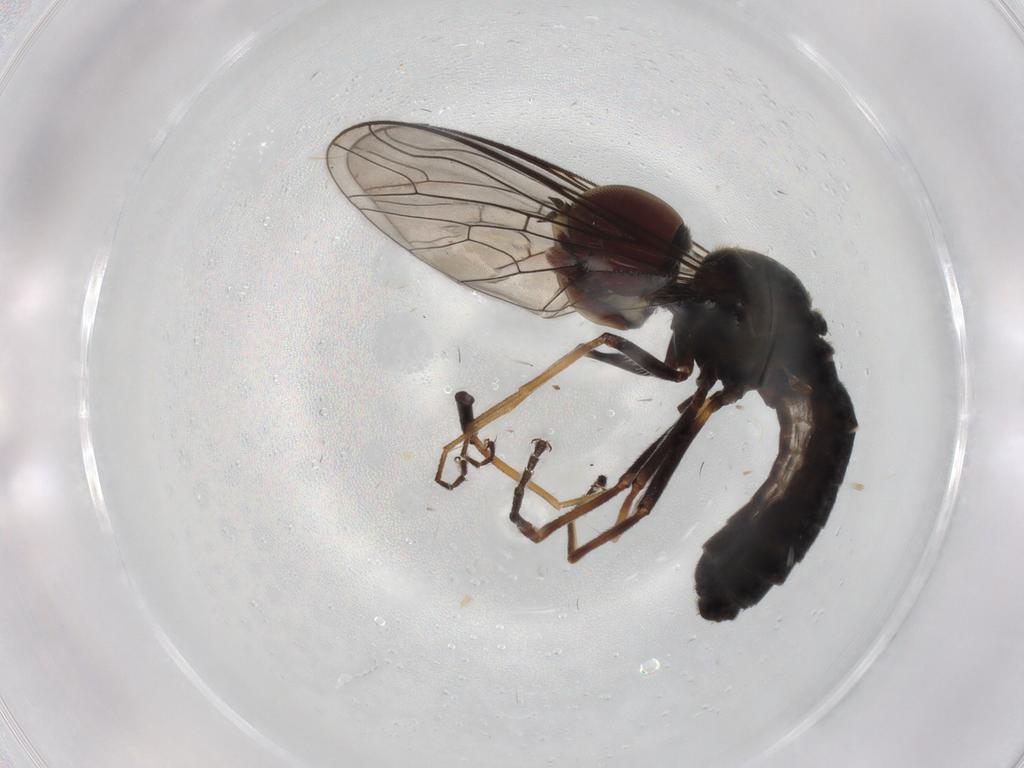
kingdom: Animalia
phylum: Arthropoda
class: Insecta
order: Diptera
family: Bombyliidae
